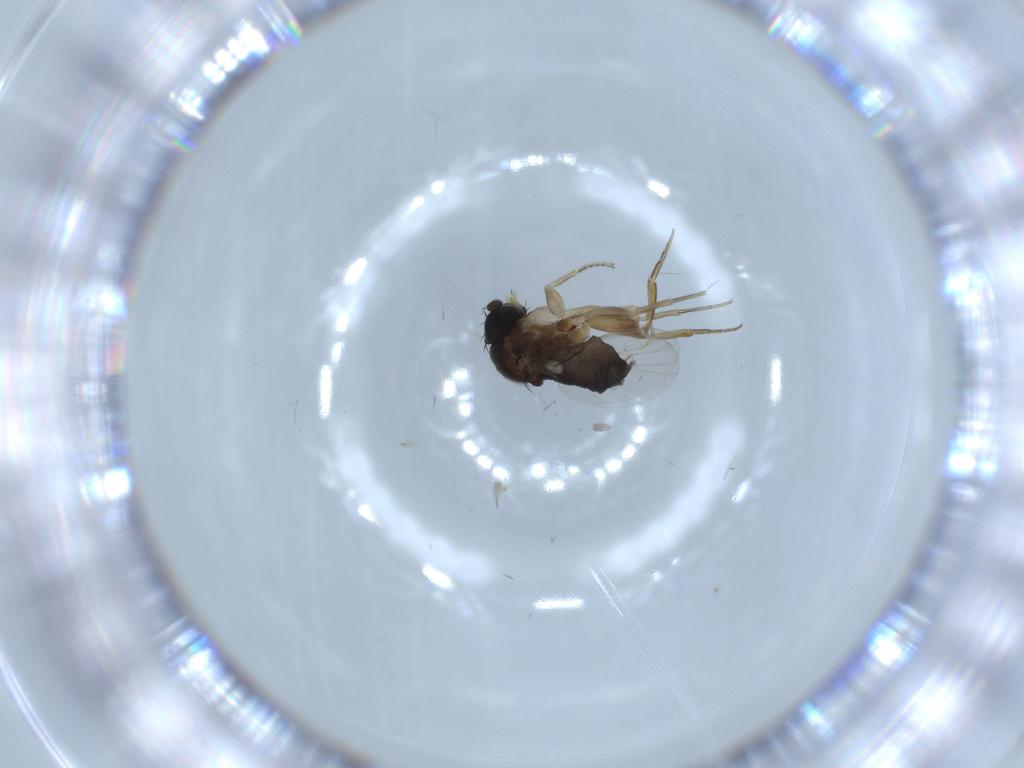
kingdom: Animalia
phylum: Arthropoda
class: Insecta
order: Diptera
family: Phoridae
